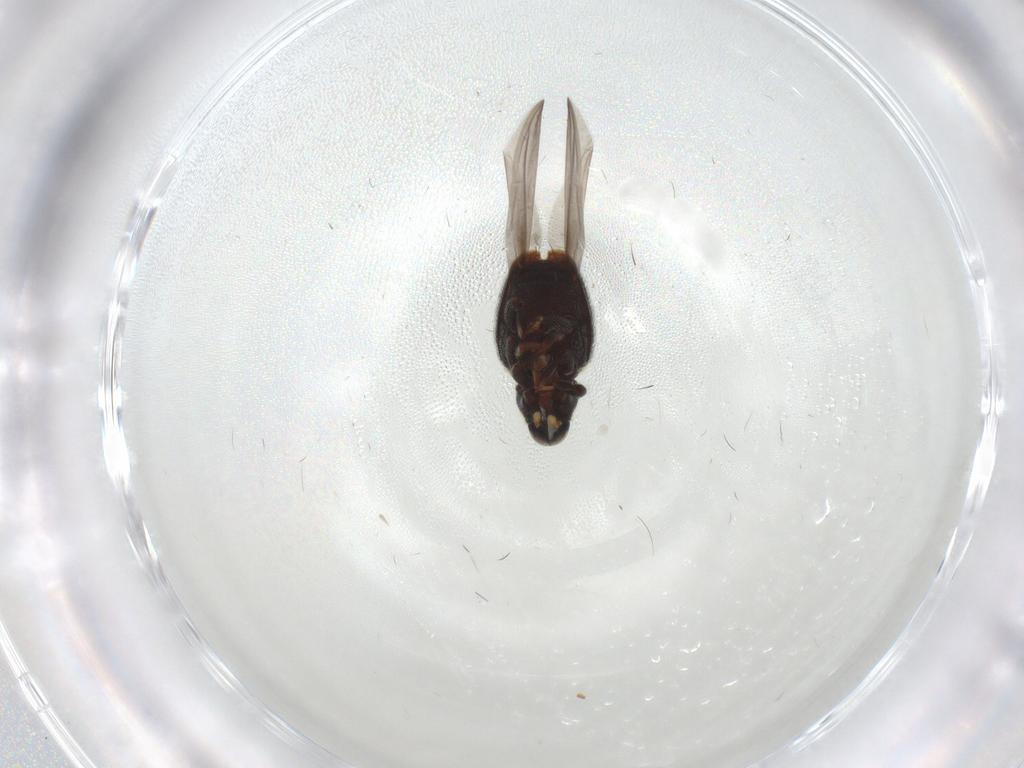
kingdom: Animalia
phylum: Arthropoda
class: Insecta
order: Coleoptera
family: Curculionidae
